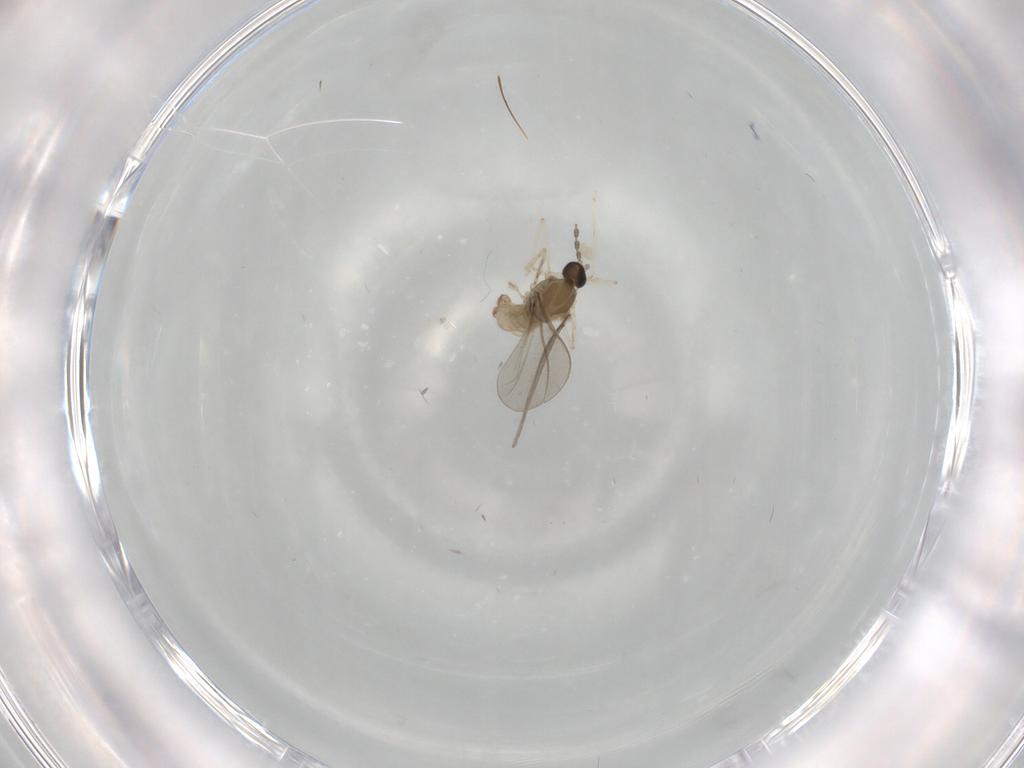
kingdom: Animalia
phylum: Arthropoda
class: Insecta
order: Diptera
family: Cecidomyiidae
